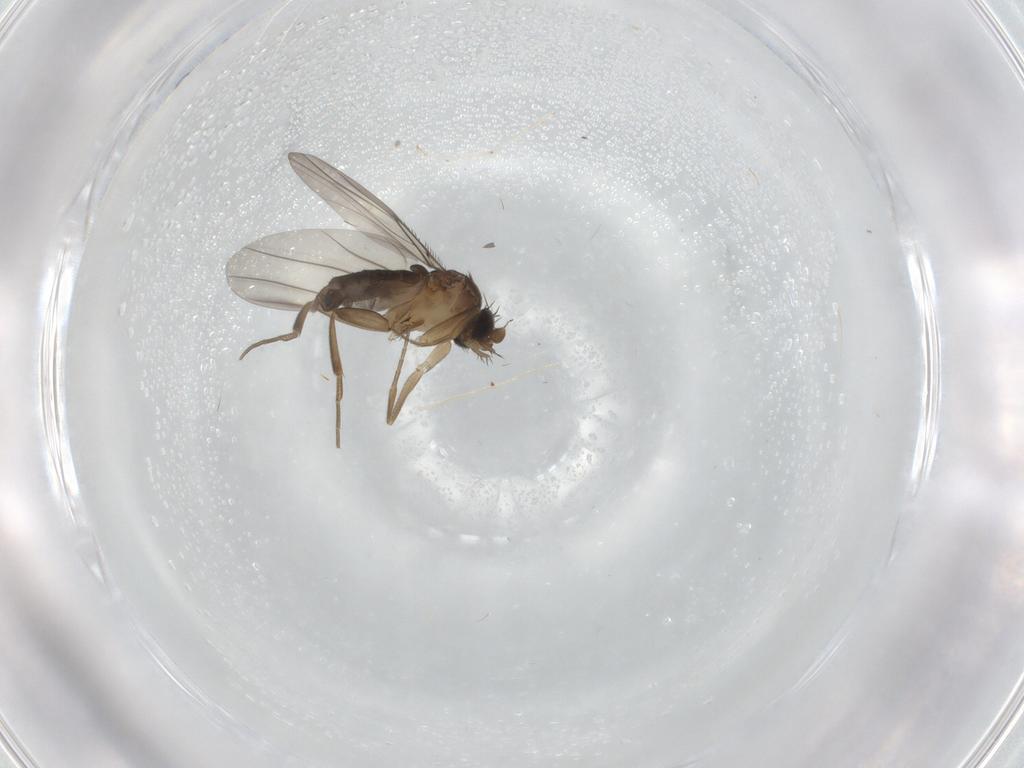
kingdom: Animalia
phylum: Arthropoda
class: Insecta
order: Diptera
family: Phoridae
